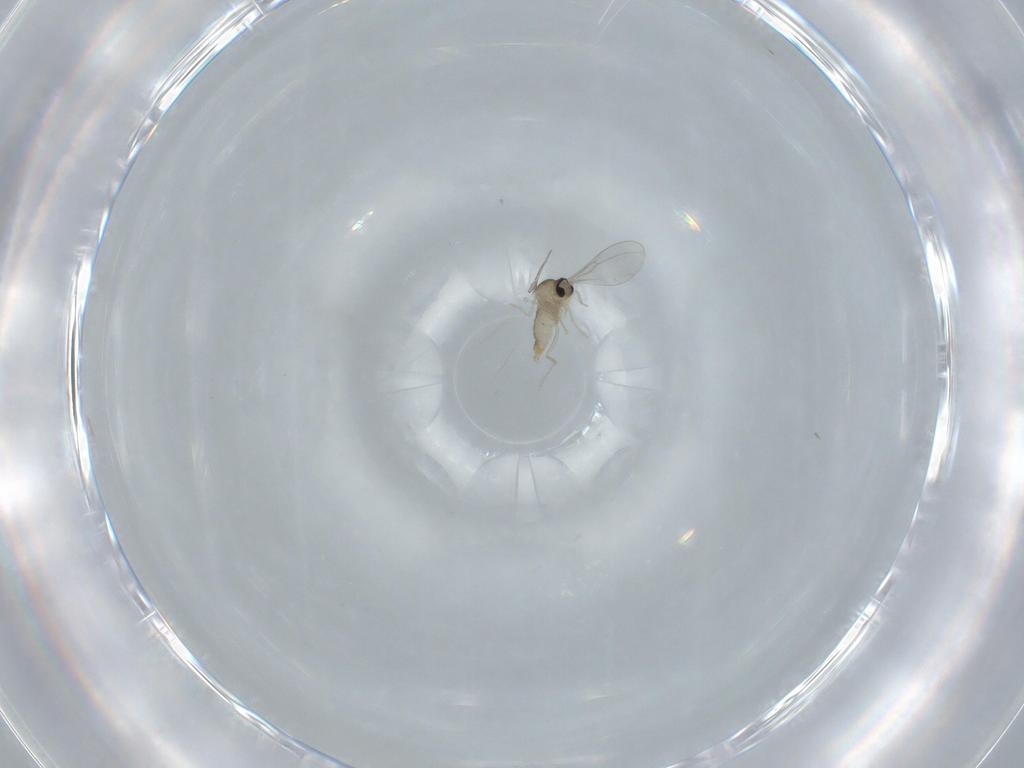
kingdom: Animalia
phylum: Arthropoda
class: Insecta
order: Diptera
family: Cecidomyiidae
